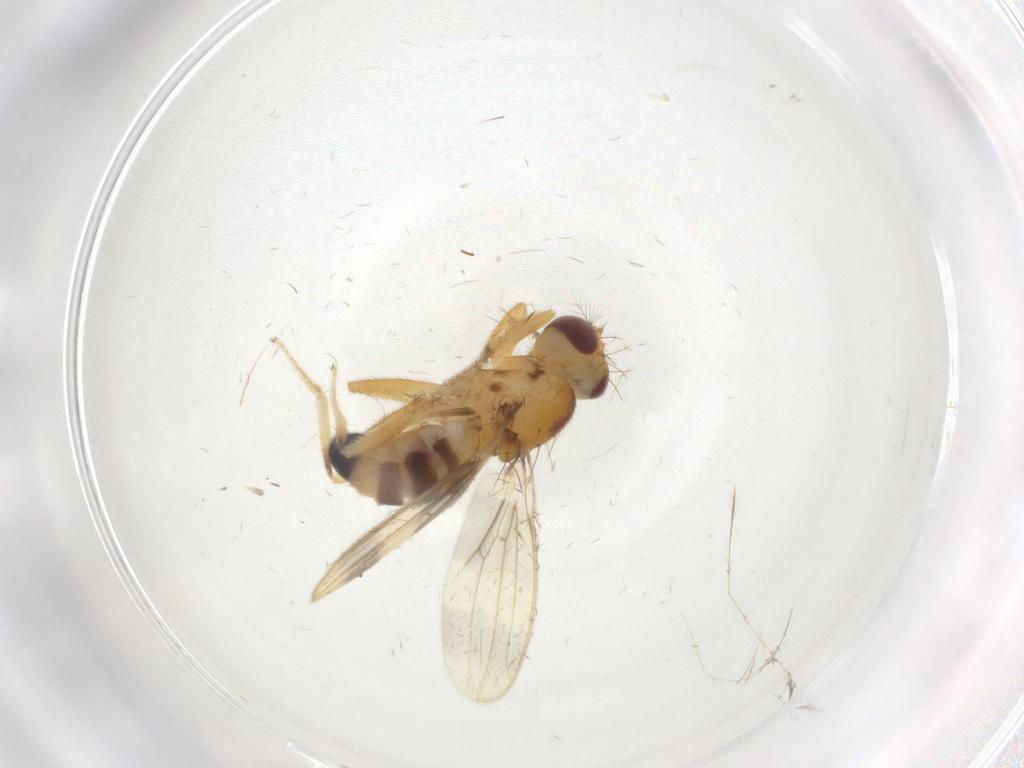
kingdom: Animalia
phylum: Arthropoda
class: Insecta
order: Diptera
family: Periscelididae
